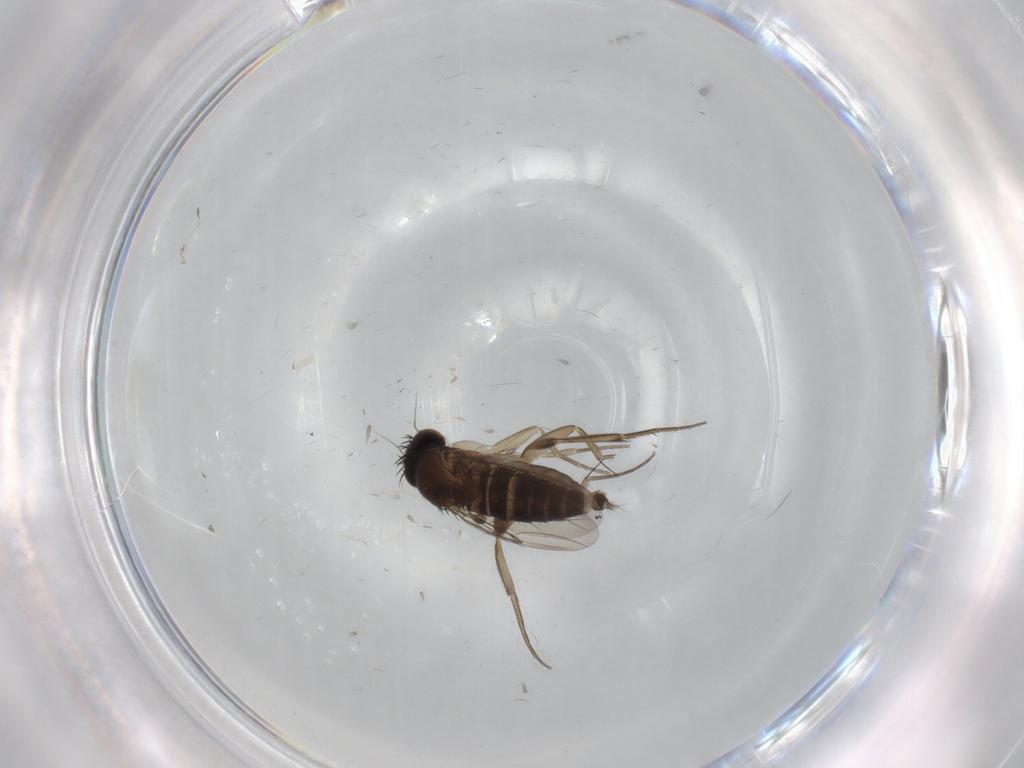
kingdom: Animalia
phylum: Arthropoda
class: Insecta
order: Diptera
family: Phoridae
